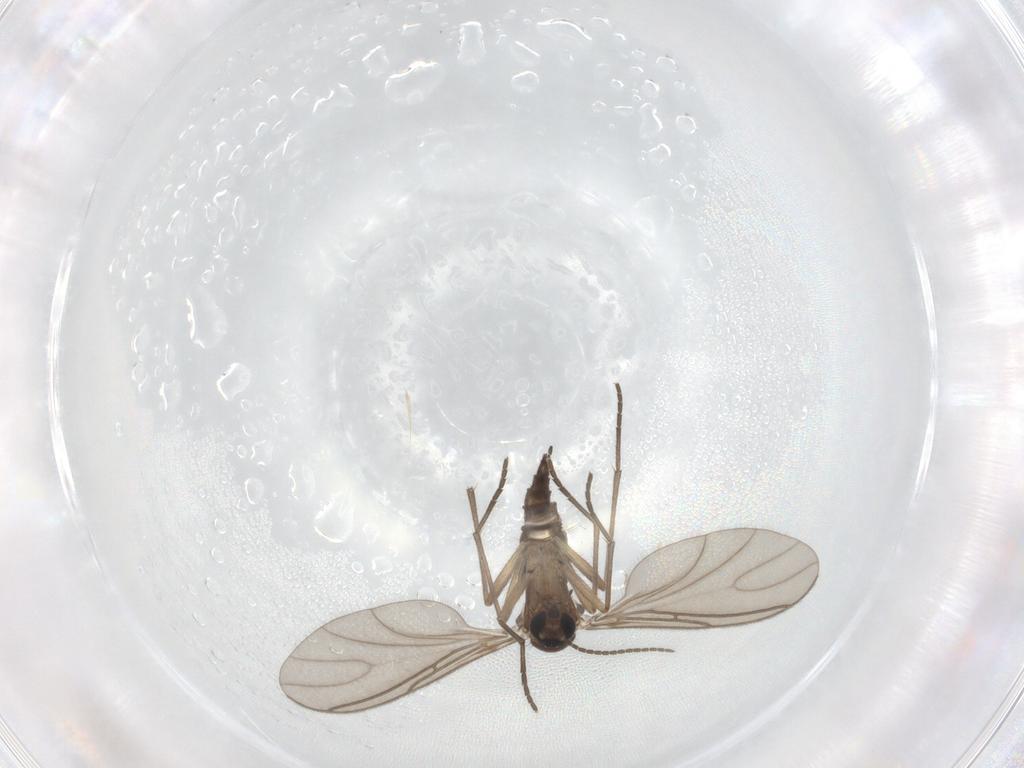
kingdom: Animalia
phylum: Arthropoda
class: Insecta
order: Diptera
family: Sciaridae
